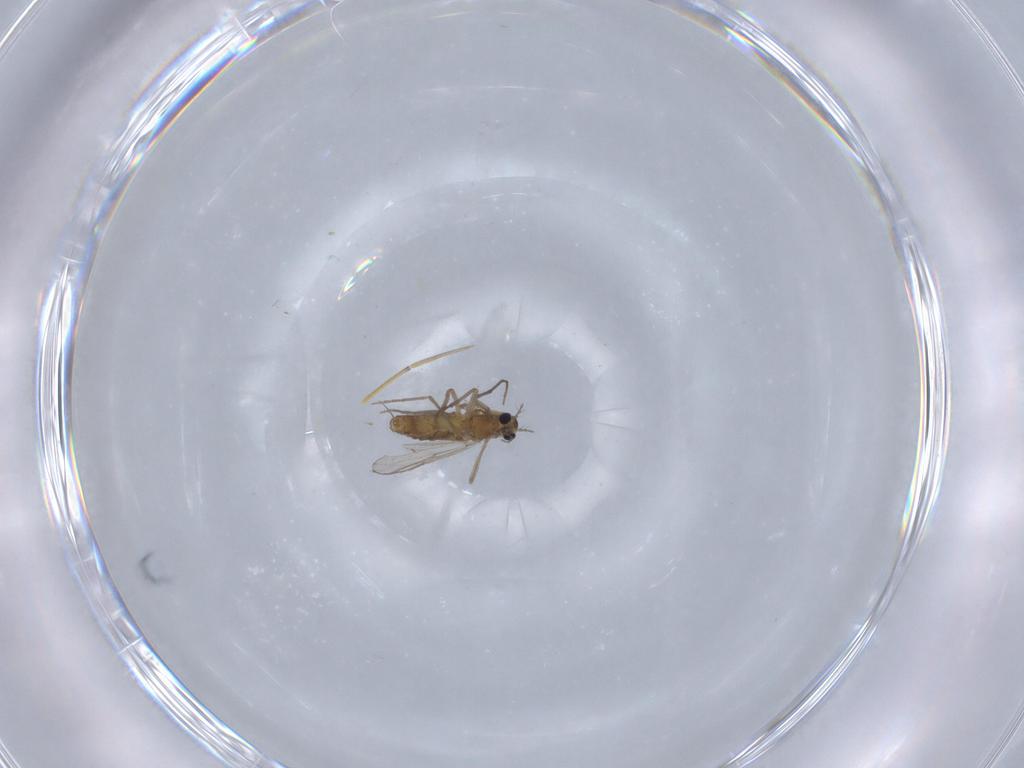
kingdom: Animalia
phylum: Arthropoda
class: Insecta
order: Diptera
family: Chironomidae
